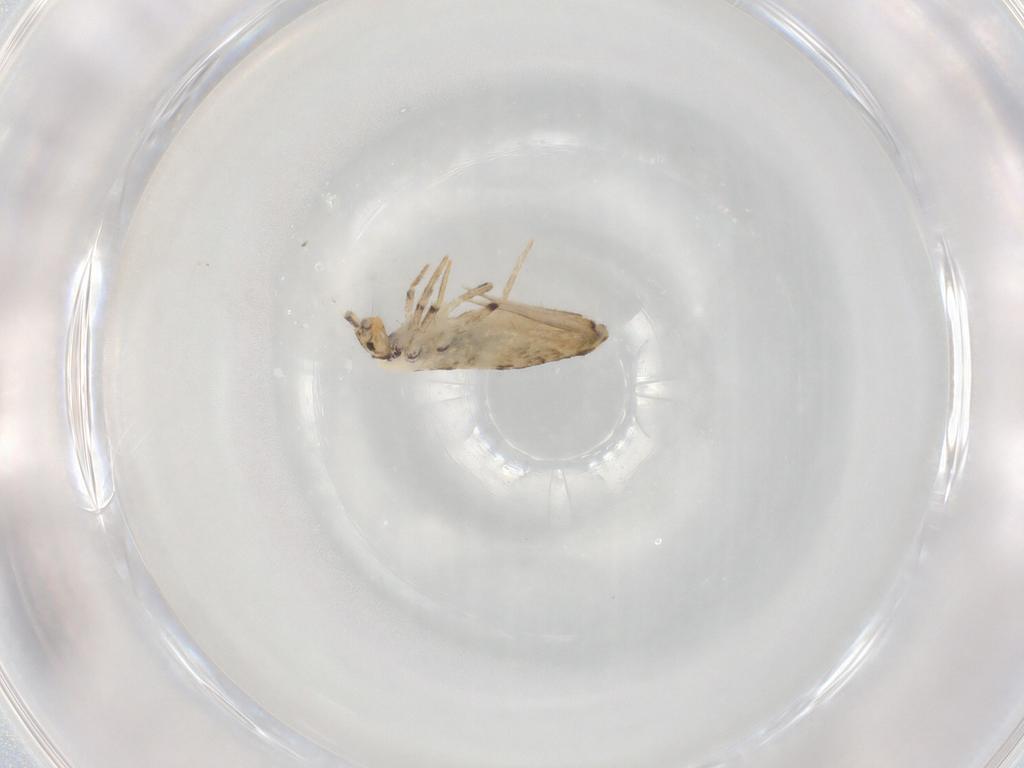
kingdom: Animalia
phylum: Arthropoda
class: Collembola
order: Entomobryomorpha
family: Entomobryidae
